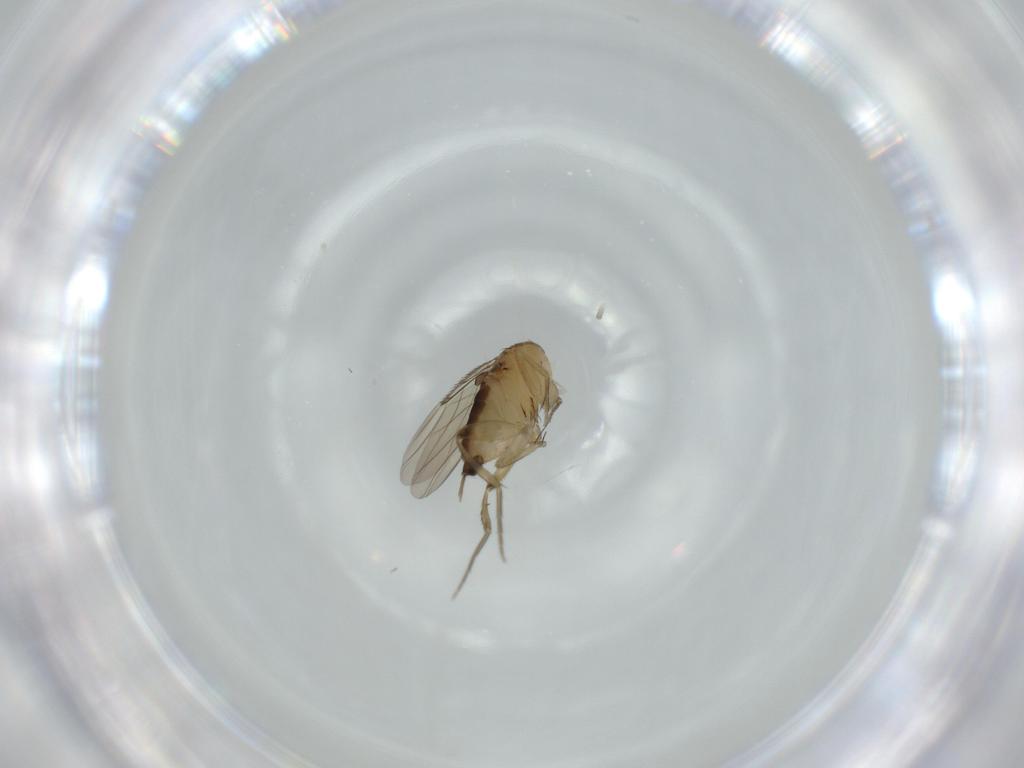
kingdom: Animalia
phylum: Arthropoda
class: Insecta
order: Diptera
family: Phoridae
